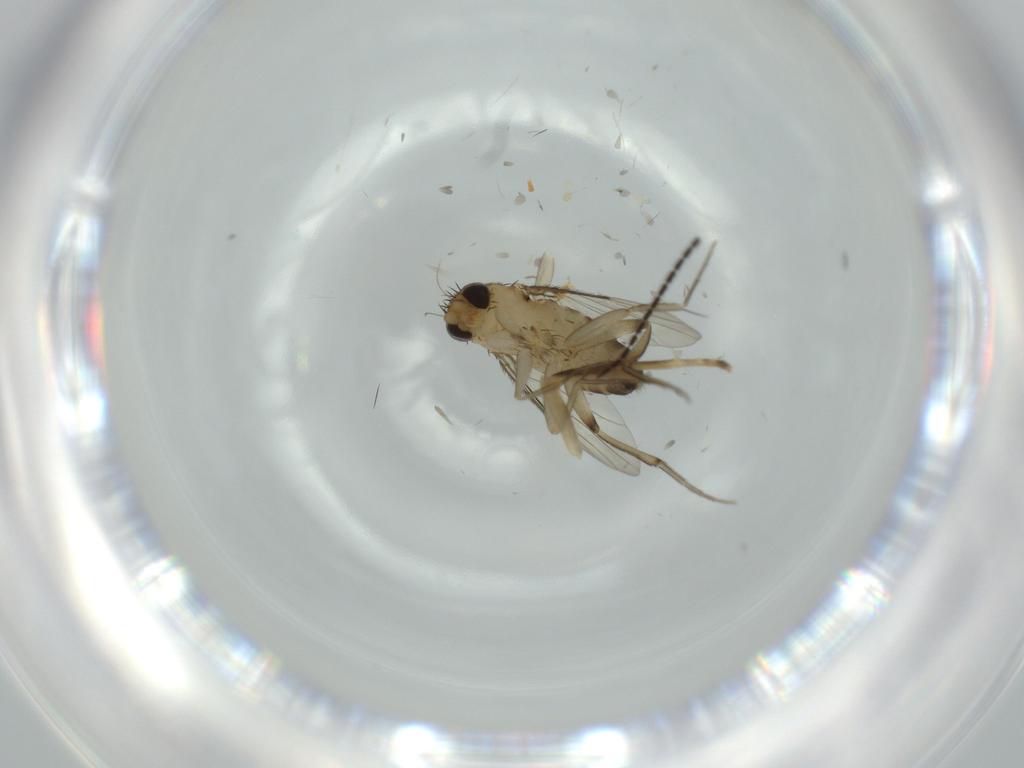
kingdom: Animalia
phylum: Arthropoda
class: Insecta
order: Diptera
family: Phoridae
